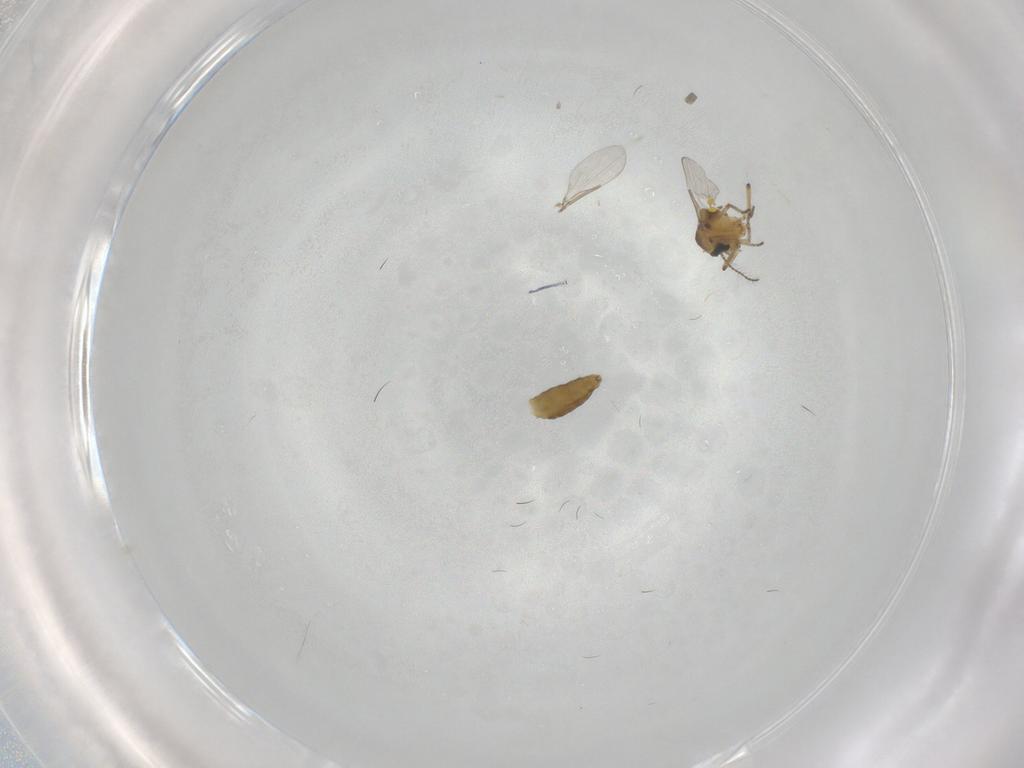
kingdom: Animalia
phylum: Arthropoda
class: Insecta
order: Diptera
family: Ceratopogonidae
